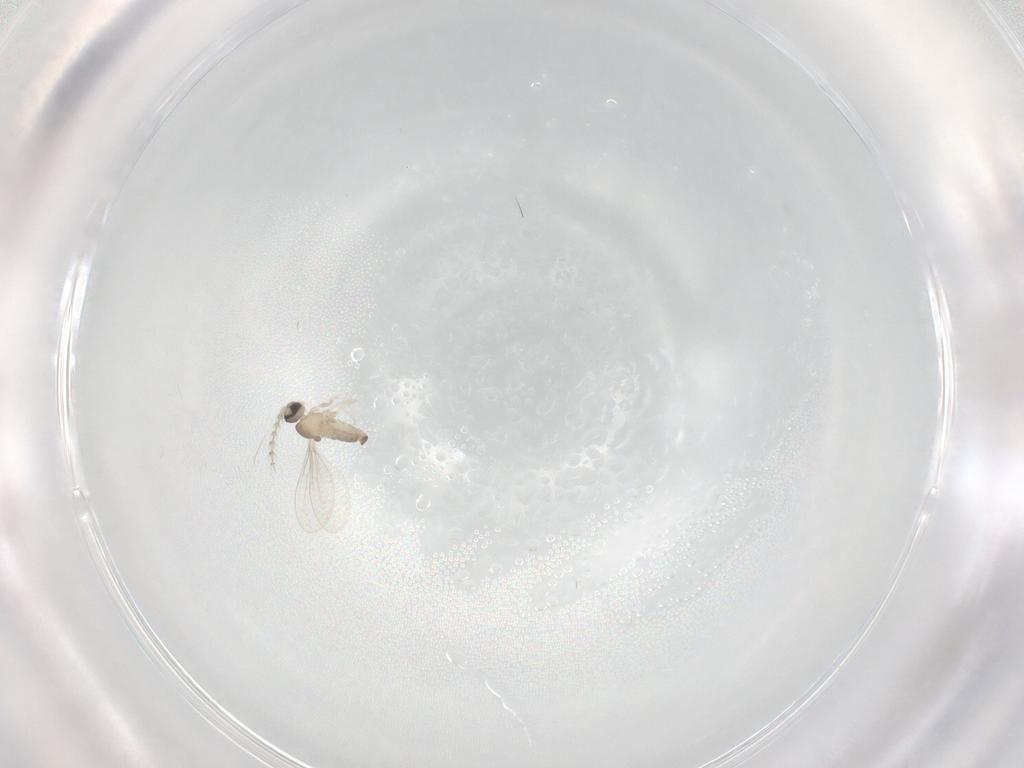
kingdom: Animalia
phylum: Arthropoda
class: Insecta
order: Diptera
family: Cecidomyiidae
